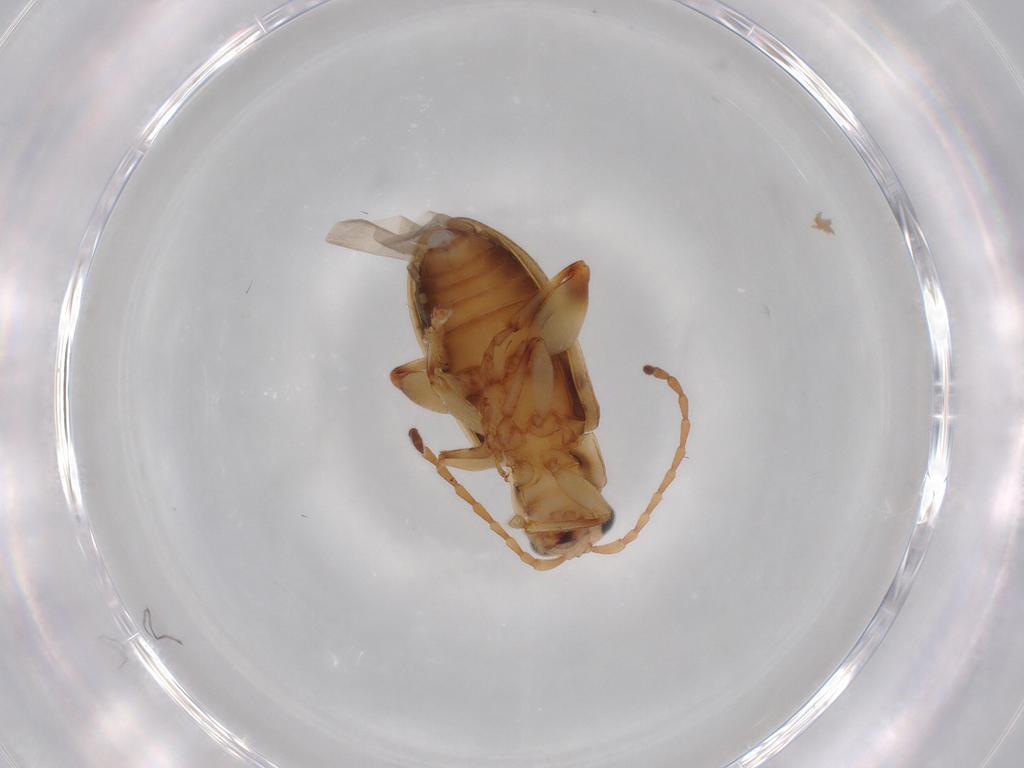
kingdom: Animalia
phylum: Arthropoda
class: Insecta
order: Coleoptera
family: Chrysomelidae
